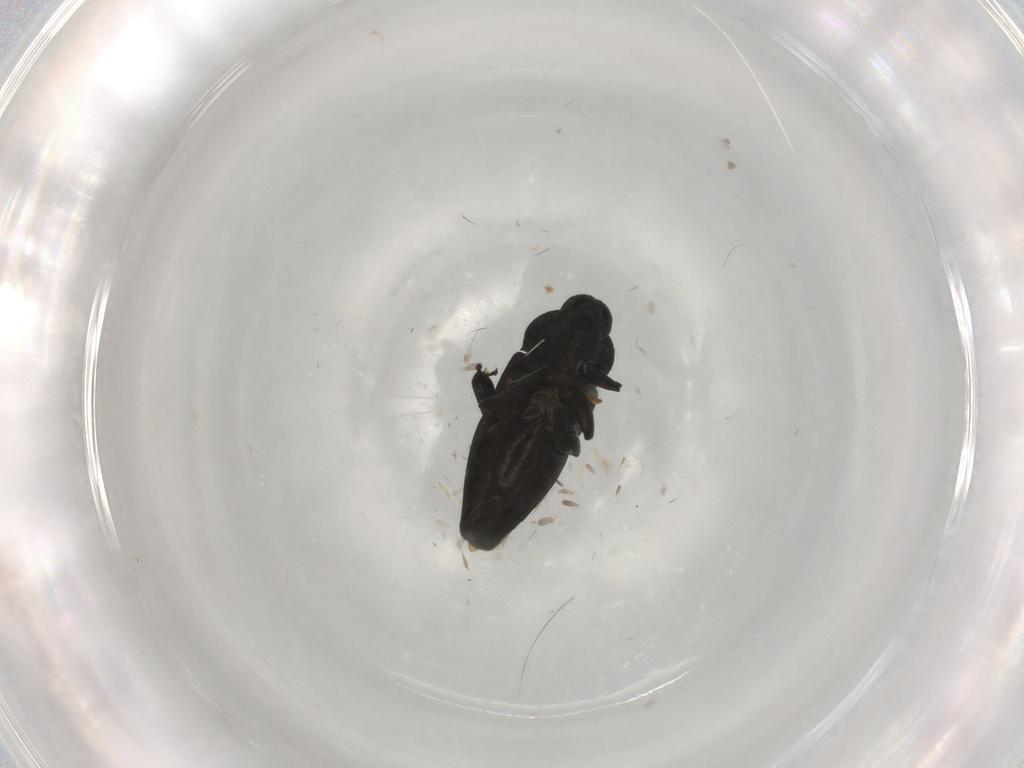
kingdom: Animalia
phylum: Arthropoda
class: Insecta
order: Coleoptera
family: Buprestidae
